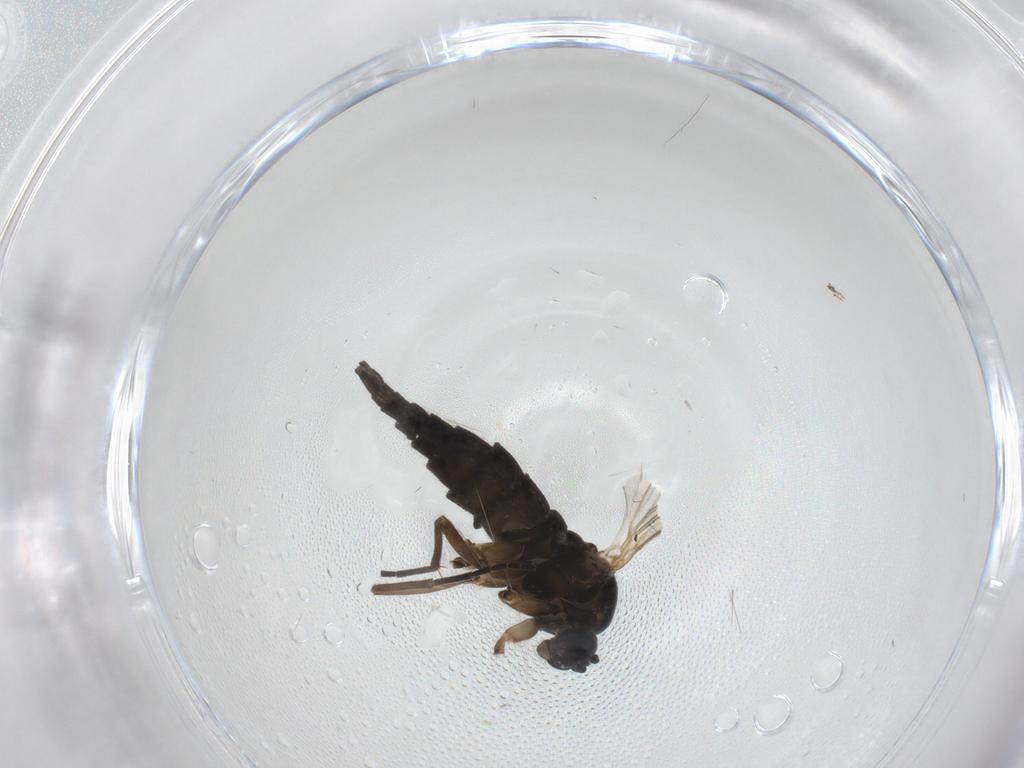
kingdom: Animalia
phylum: Arthropoda
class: Insecta
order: Diptera
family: Sciaridae
